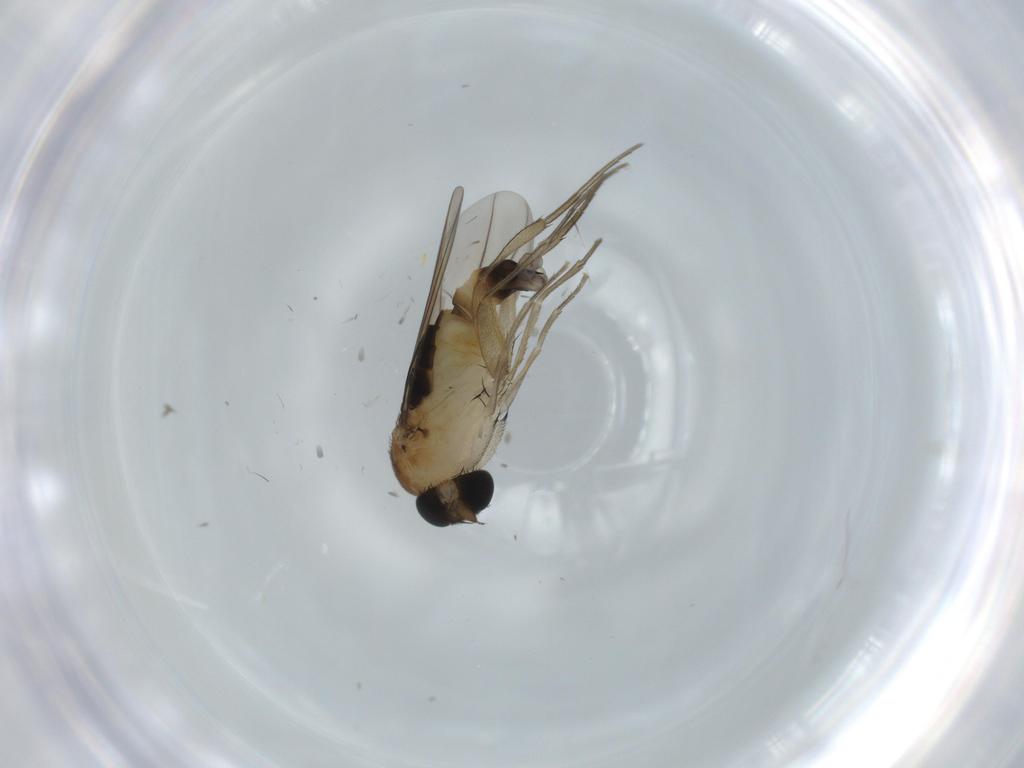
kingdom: Animalia
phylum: Arthropoda
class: Insecta
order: Diptera
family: Phoridae
